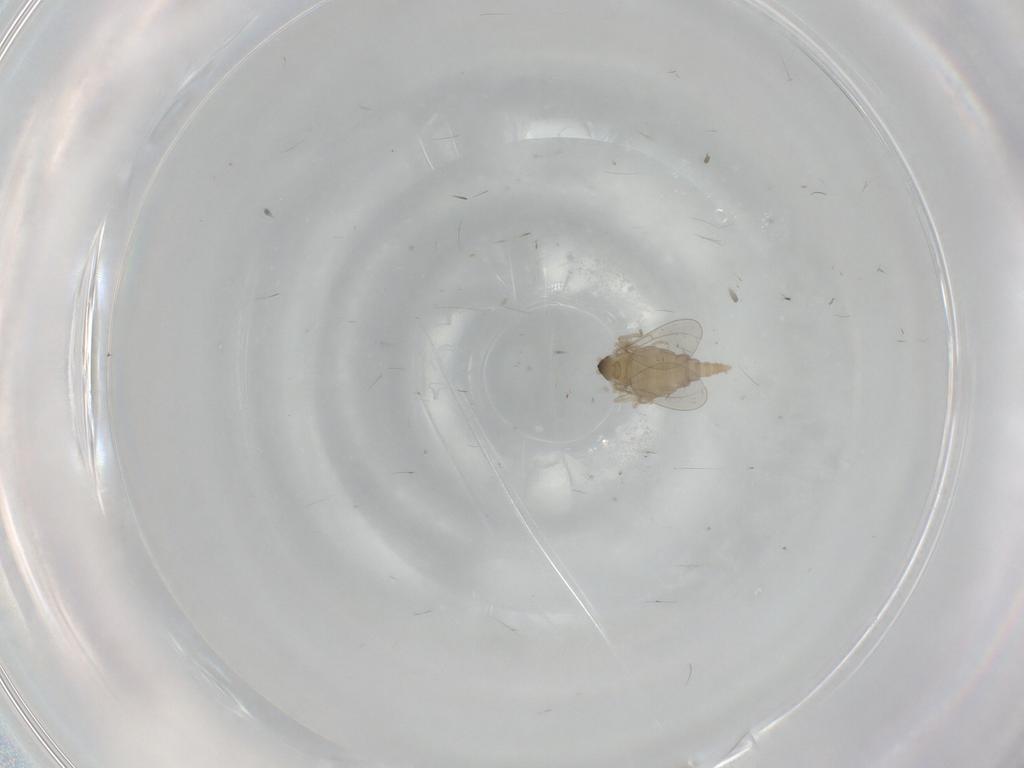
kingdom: Animalia
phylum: Arthropoda
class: Insecta
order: Diptera
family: Cecidomyiidae
